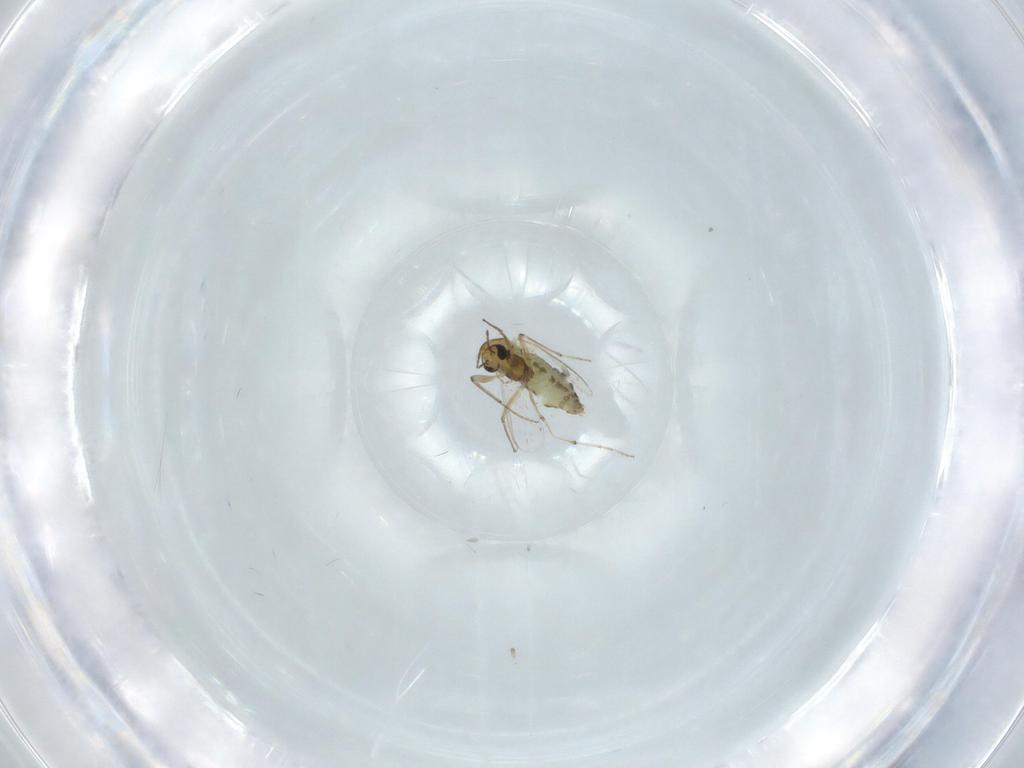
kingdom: Animalia
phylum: Arthropoda
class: Insecta
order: Diptera
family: Chironomidae
